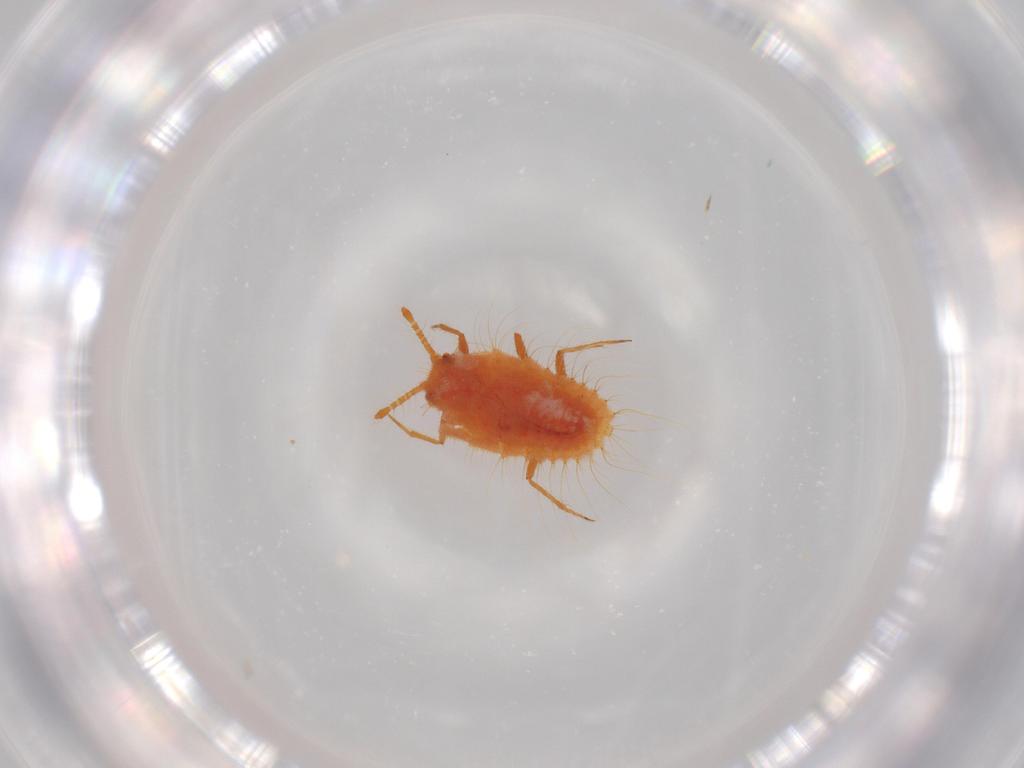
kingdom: Animalia
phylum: Arthropoda
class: Insecta
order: Hemiptera
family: Coccoidea_incertae_sedis
